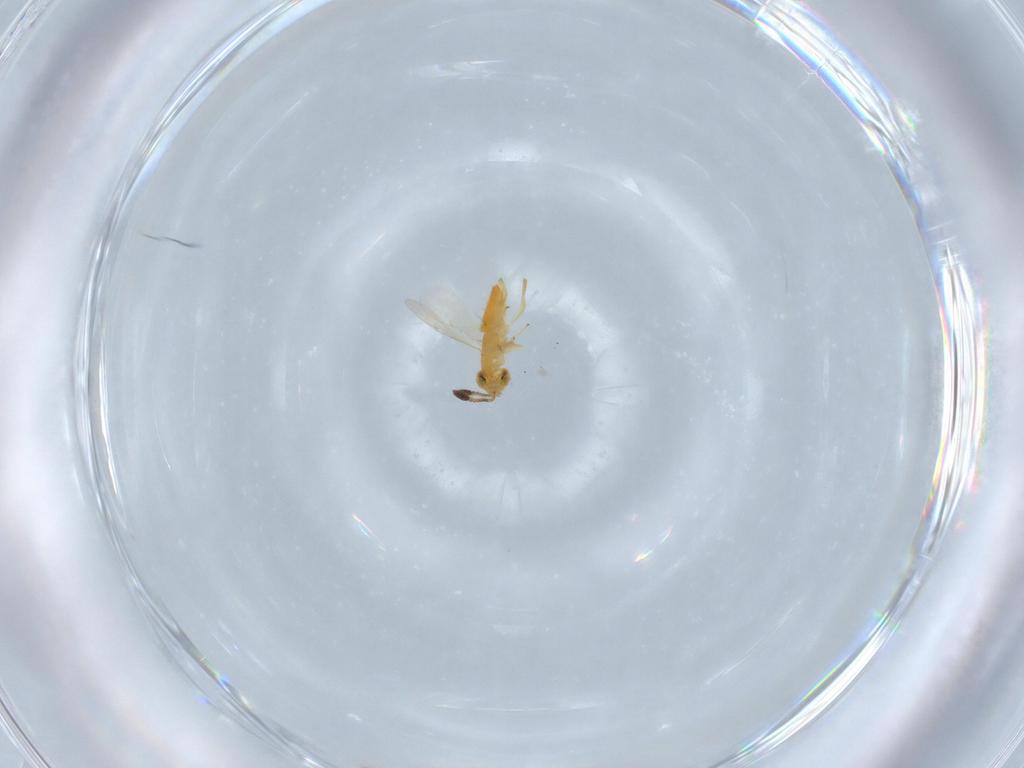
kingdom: Animalia
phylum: Arthropoda
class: Insecta
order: Hymenoptera
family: Encyrtidae
